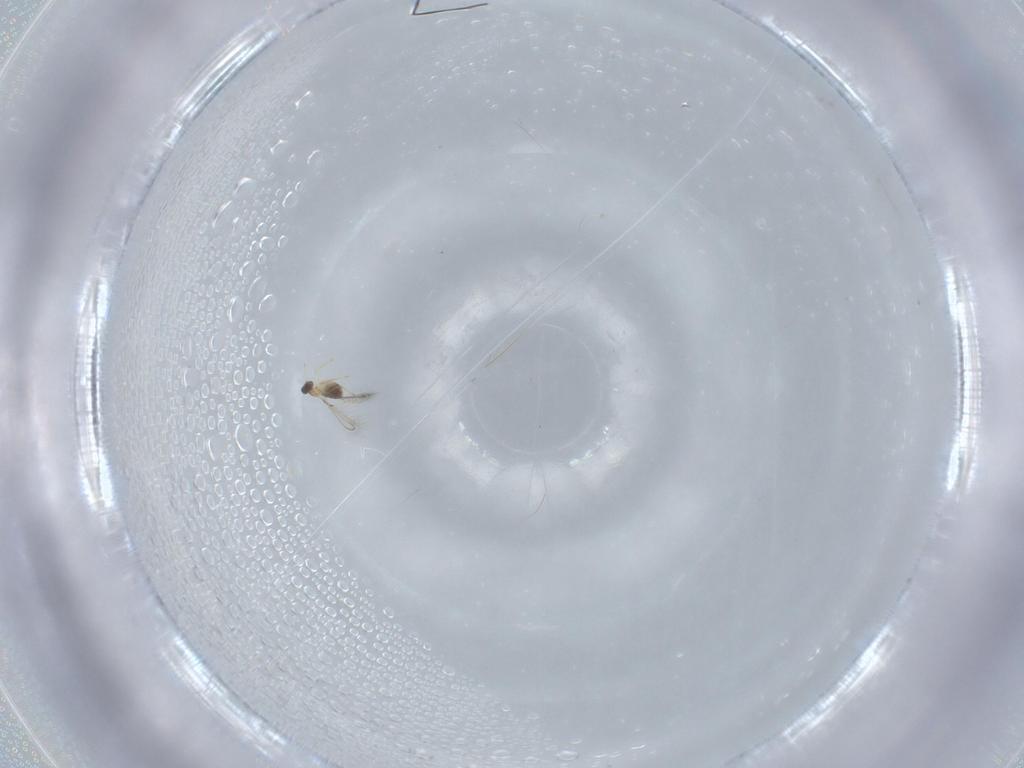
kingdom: Animalia
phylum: Arthropoda
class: Insecta
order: Hymenoptera
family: Mymaridae
